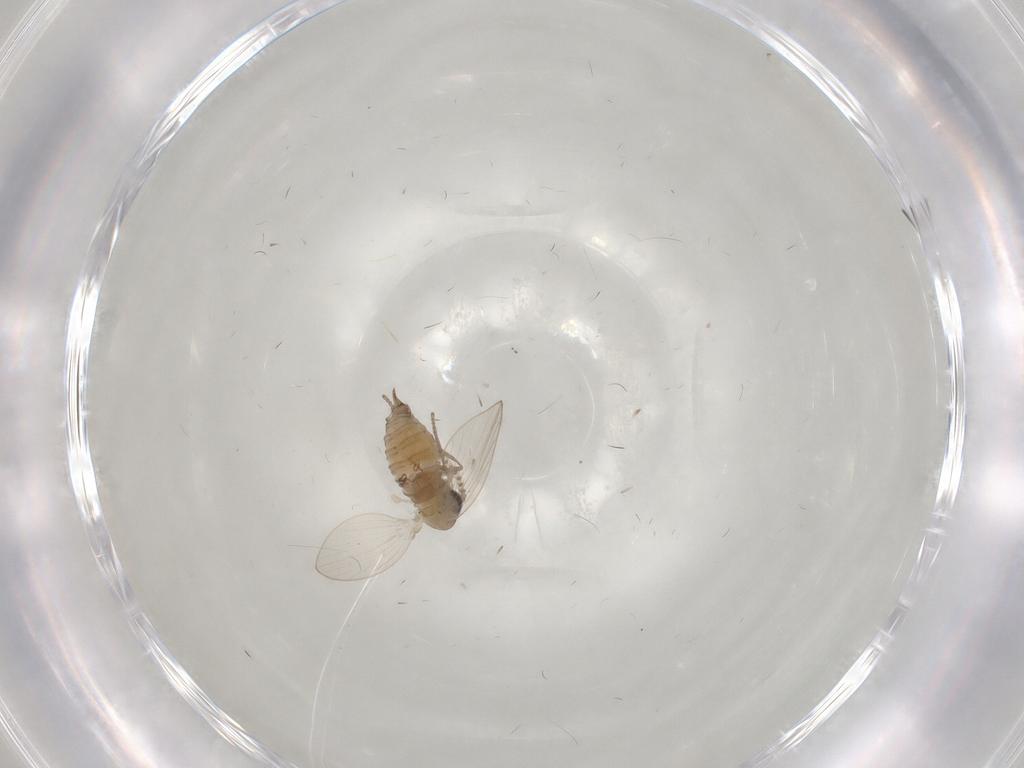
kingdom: Animalia
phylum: Arthropoda
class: Insecta
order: Diptera
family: Psychodidae
